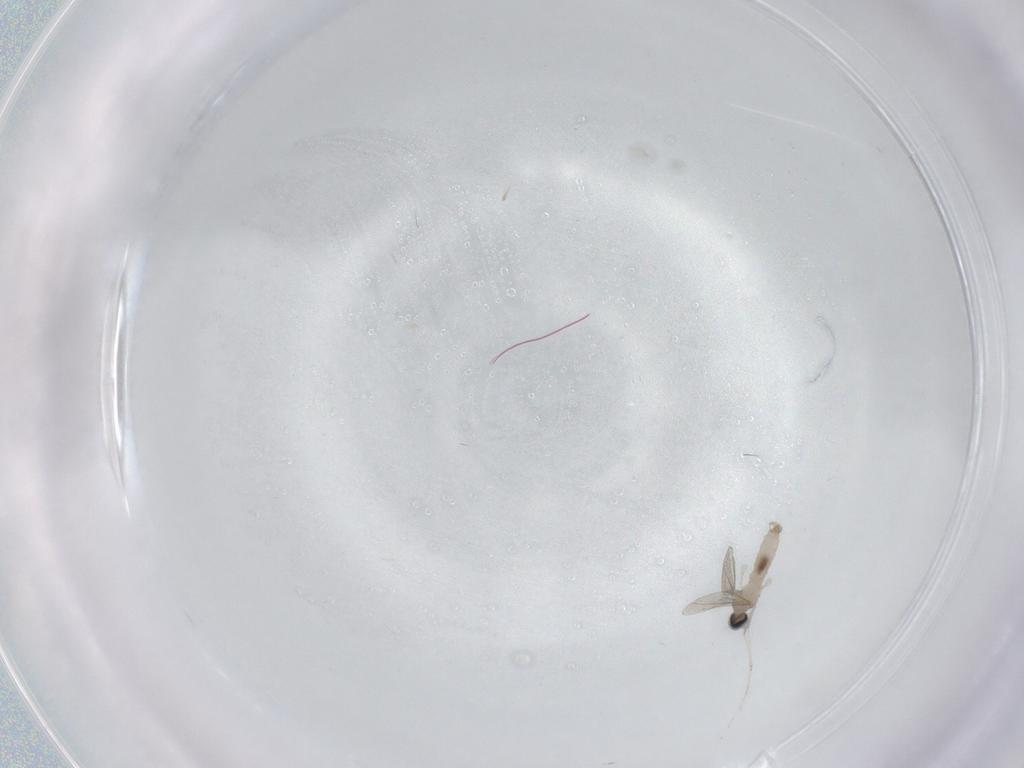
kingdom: Animalia
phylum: Arthropoda
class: Insecta
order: Diptera
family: Cecidomyiidae
